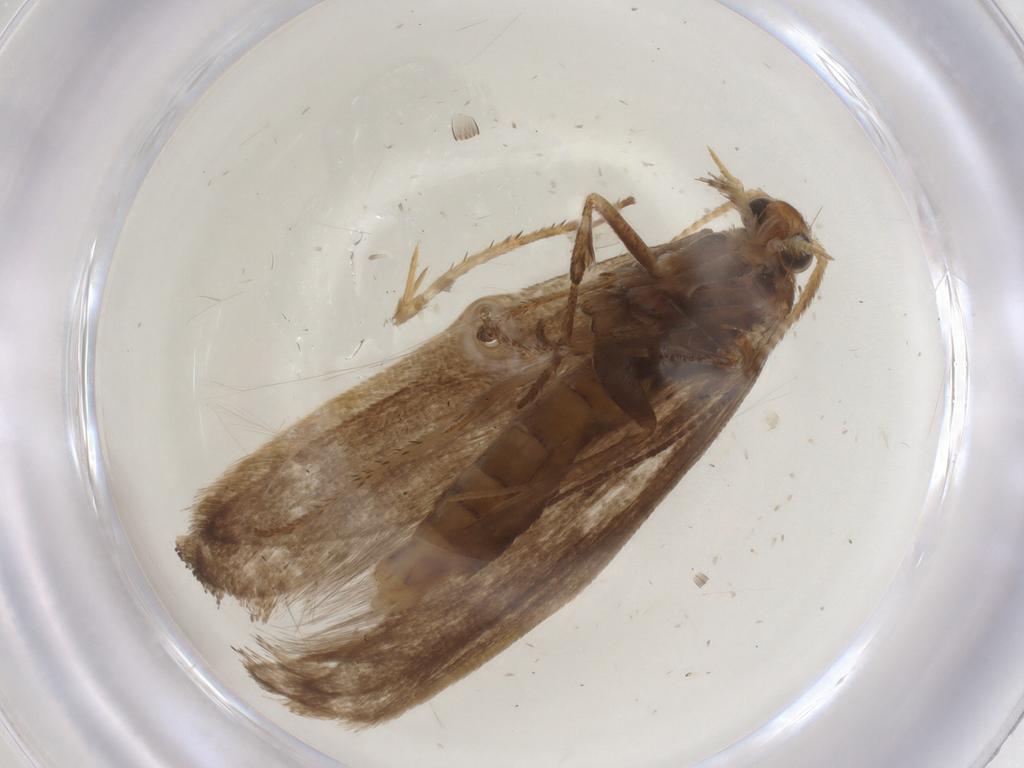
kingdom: Animalia
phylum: Arthropoda
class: Insecta
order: Lepidoptera
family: Plutellidae
